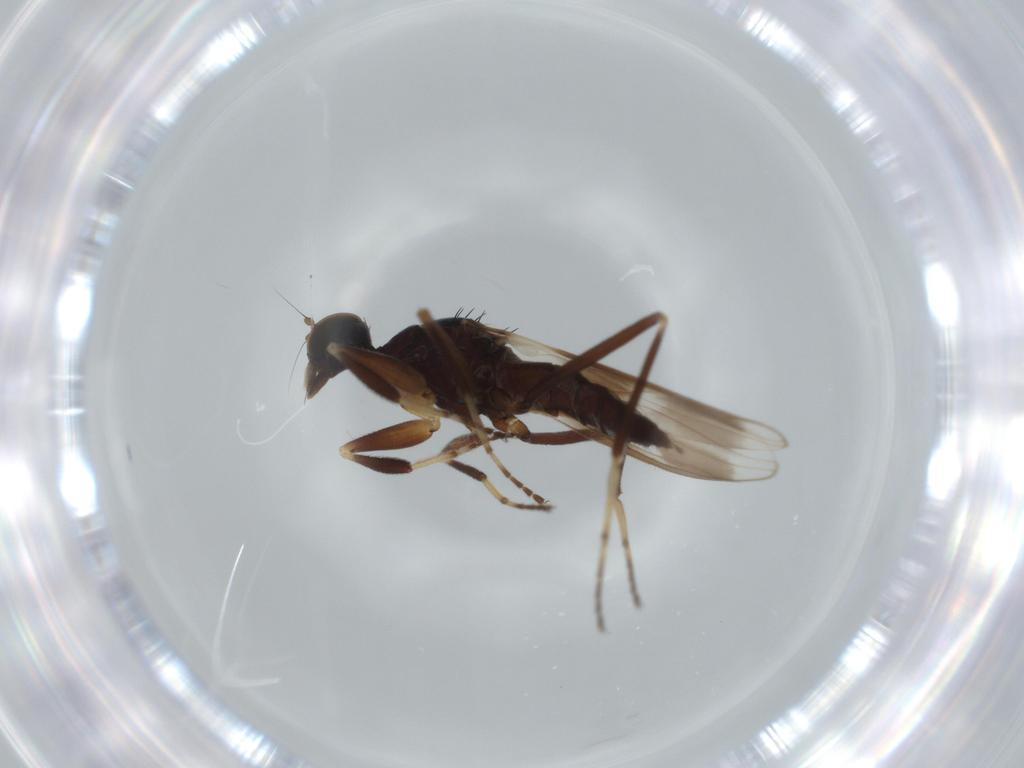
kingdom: Animalia
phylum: Arthropoda
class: Insecta
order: Diptera
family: Hybotidae
